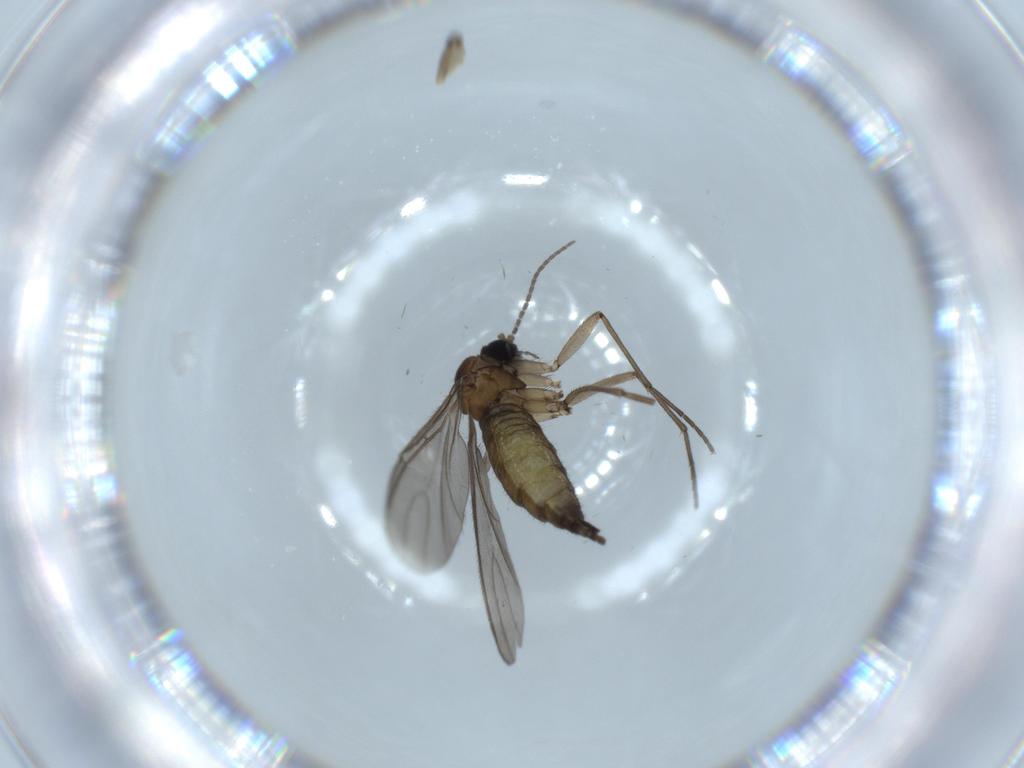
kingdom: Animalia
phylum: Arthropoda
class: Insecta
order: Diptera
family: Sciaridae
